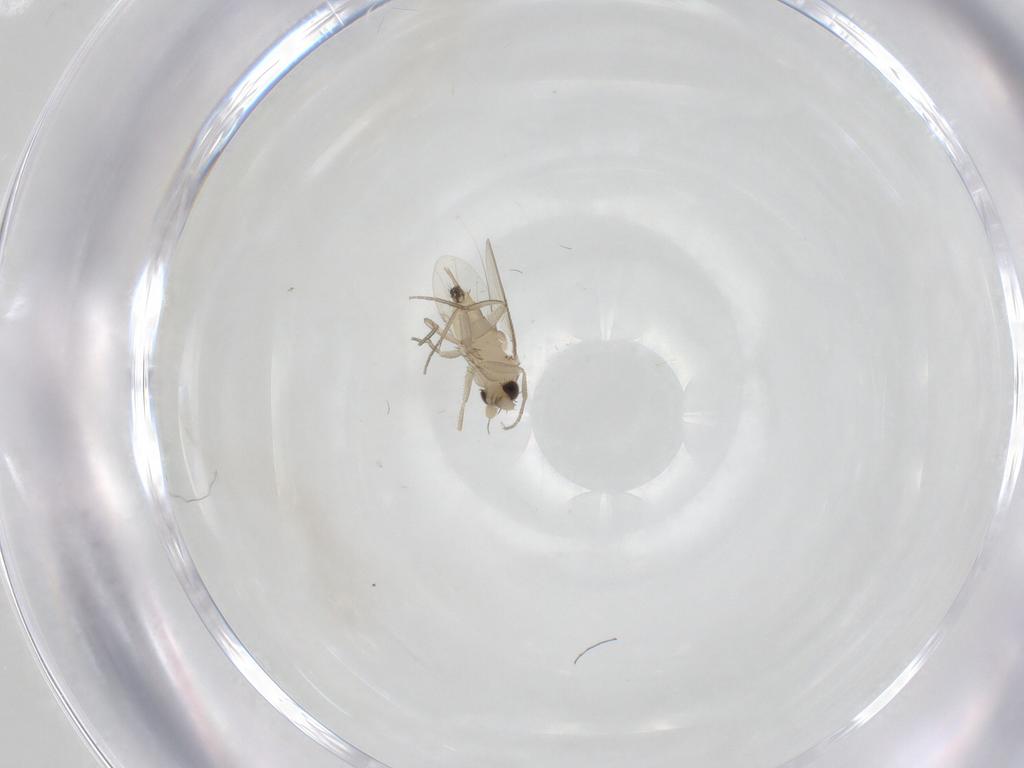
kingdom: Animalia
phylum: Arthropoda
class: Insecta
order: Diptera
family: Phoridae
